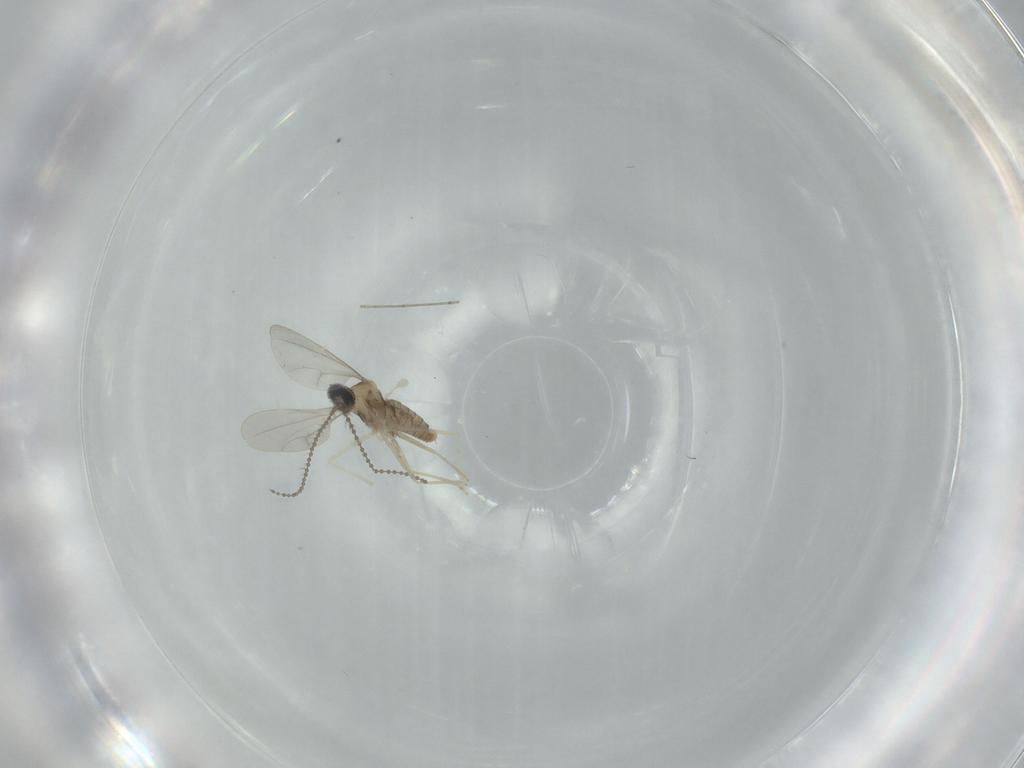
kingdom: Animalia
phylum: Arthropoda
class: Insecta
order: Diptera
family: Cecidomyiidae
